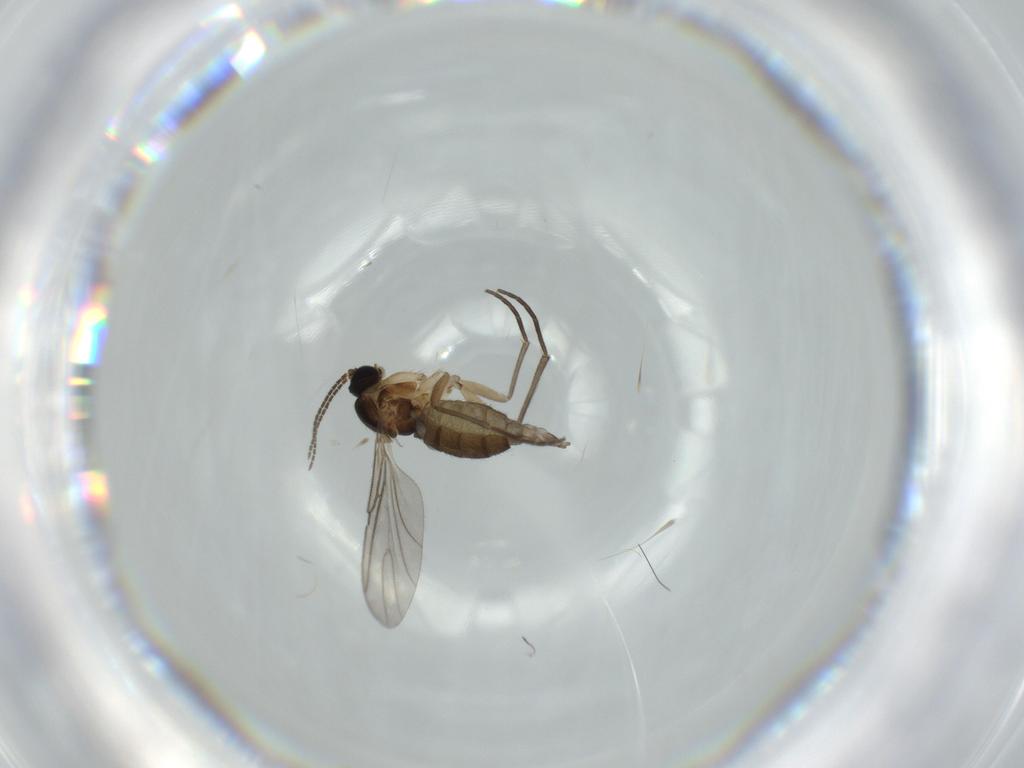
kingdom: Animalia
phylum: Arthropoda
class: Insecta
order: Diptera
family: Sciaridae
